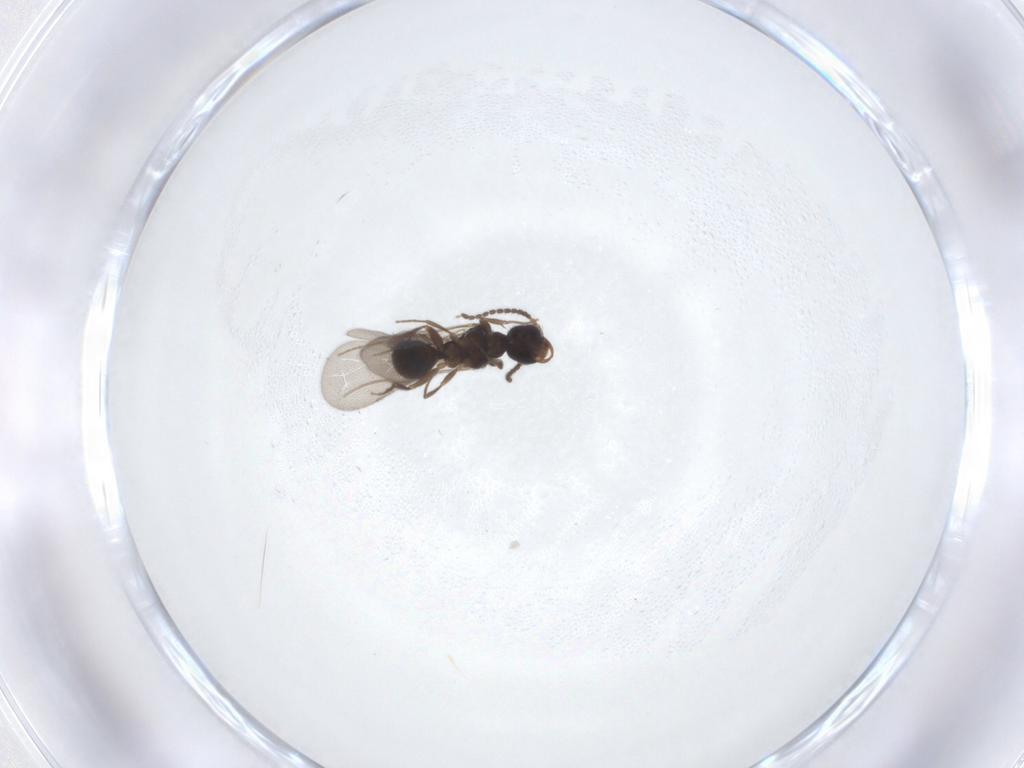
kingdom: Animalia
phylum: Arthropoda
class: Insecta
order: Hymenoptera
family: Bethylidae
